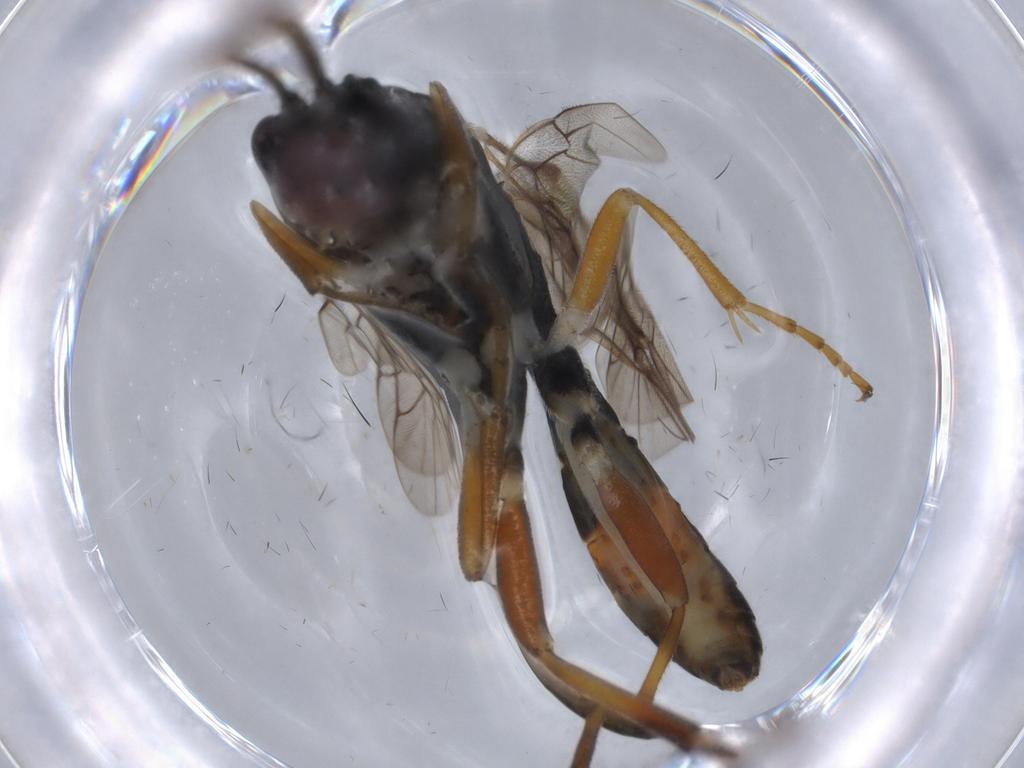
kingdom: Animalia
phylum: Arthropoda
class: Insecta
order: Hymenoptera
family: Ichneumonidae
